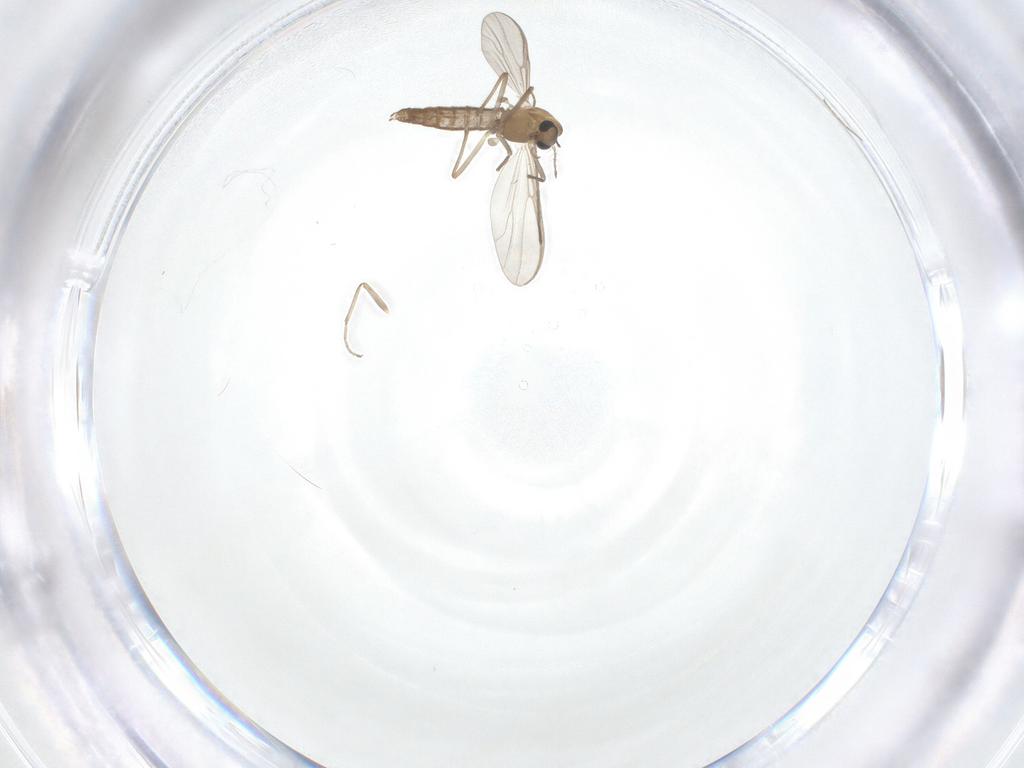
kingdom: Animalia
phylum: Arthropoda
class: Insecta
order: Diptera
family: Chironomidae
